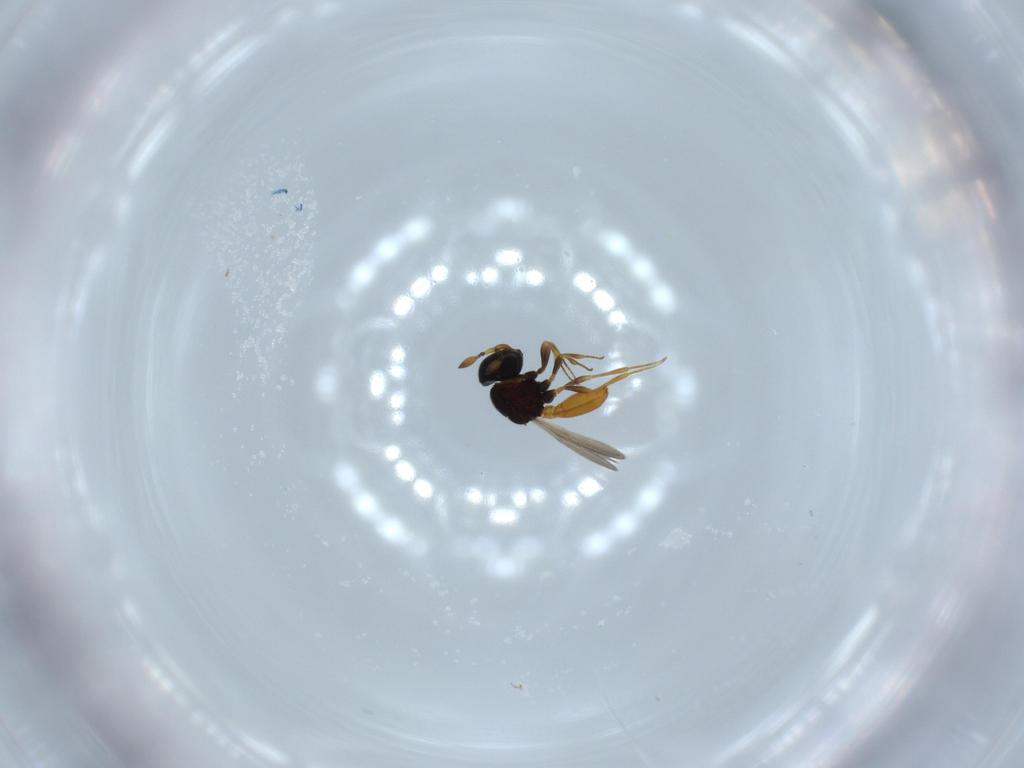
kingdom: Animalia
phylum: Arthropoda
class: Insecta
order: Hymenoptera
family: Scelionidae
